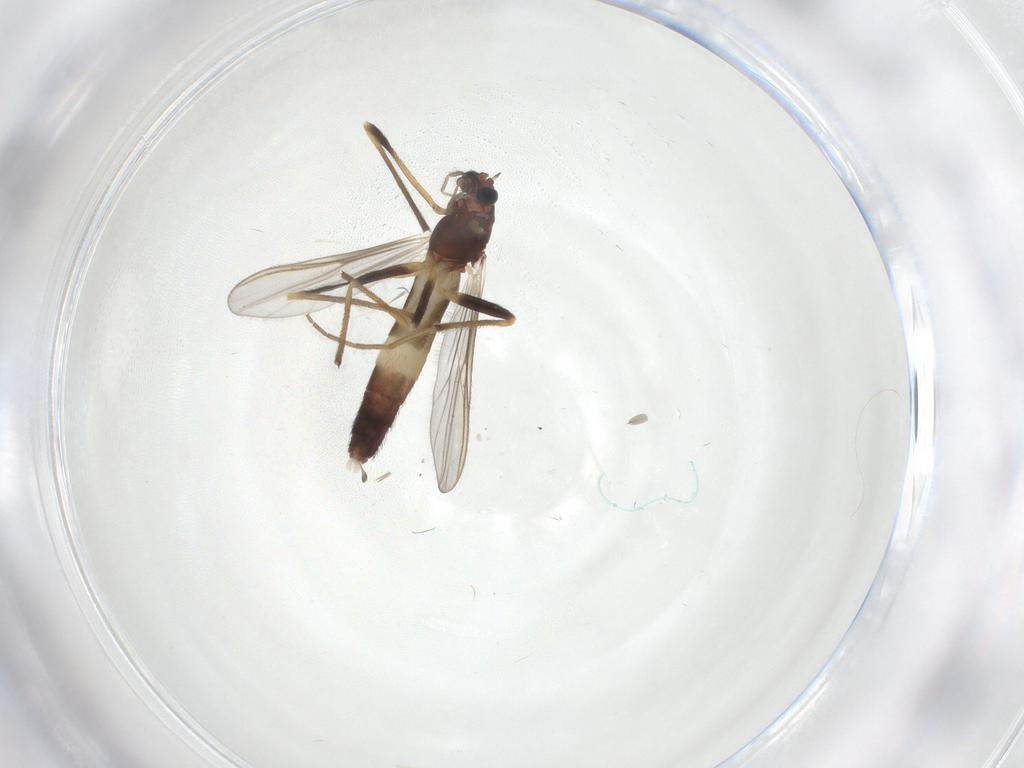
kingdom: Animalia
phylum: Arthropoda
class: Insecta
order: Diptera
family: Chironomidae
